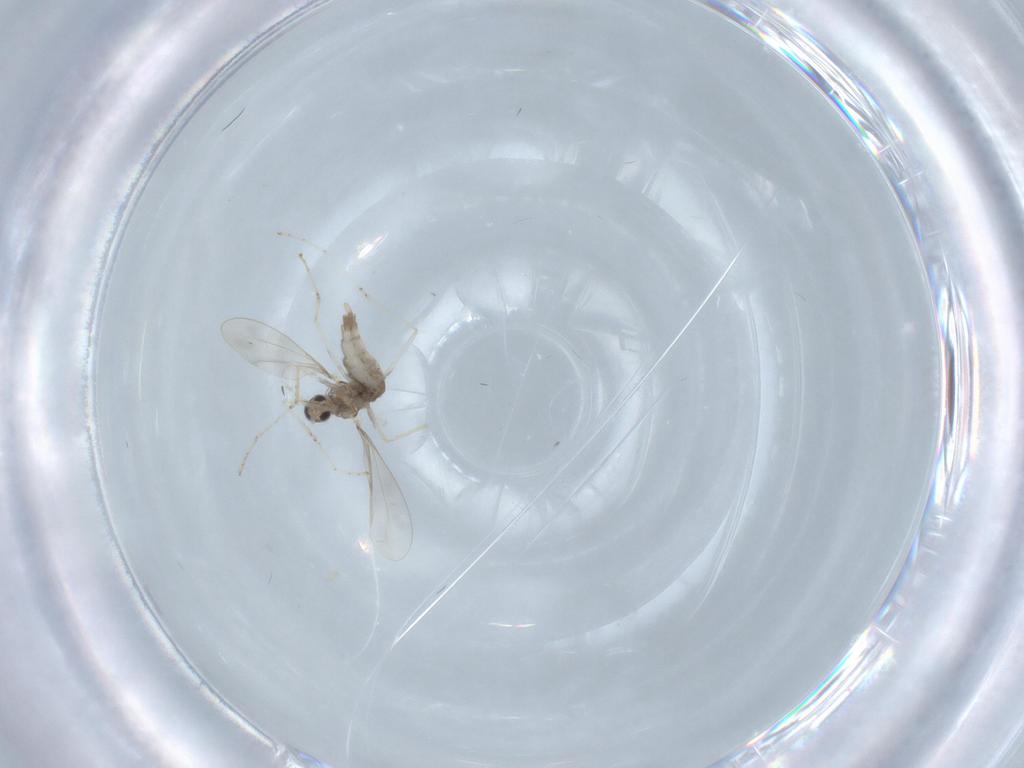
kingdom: Animalia
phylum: Arthropoda
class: Insecta
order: Diptera
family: Cecidomyiidae
